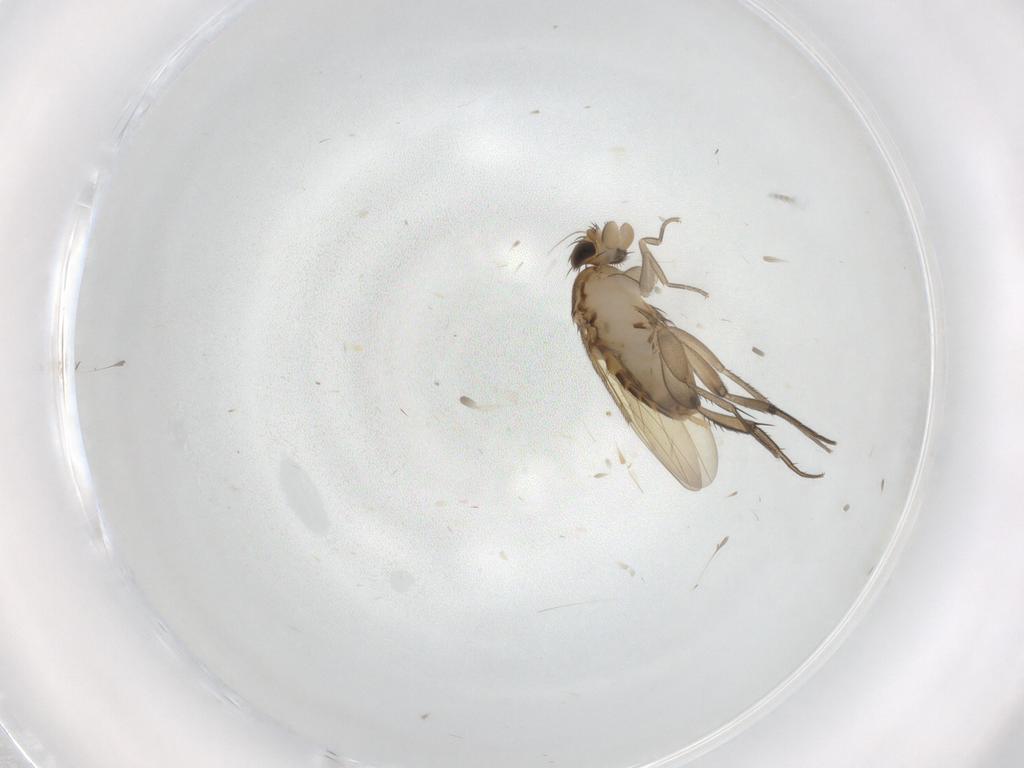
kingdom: Animalia
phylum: Arthropoda
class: Insecta
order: Diptera
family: Phoridae
